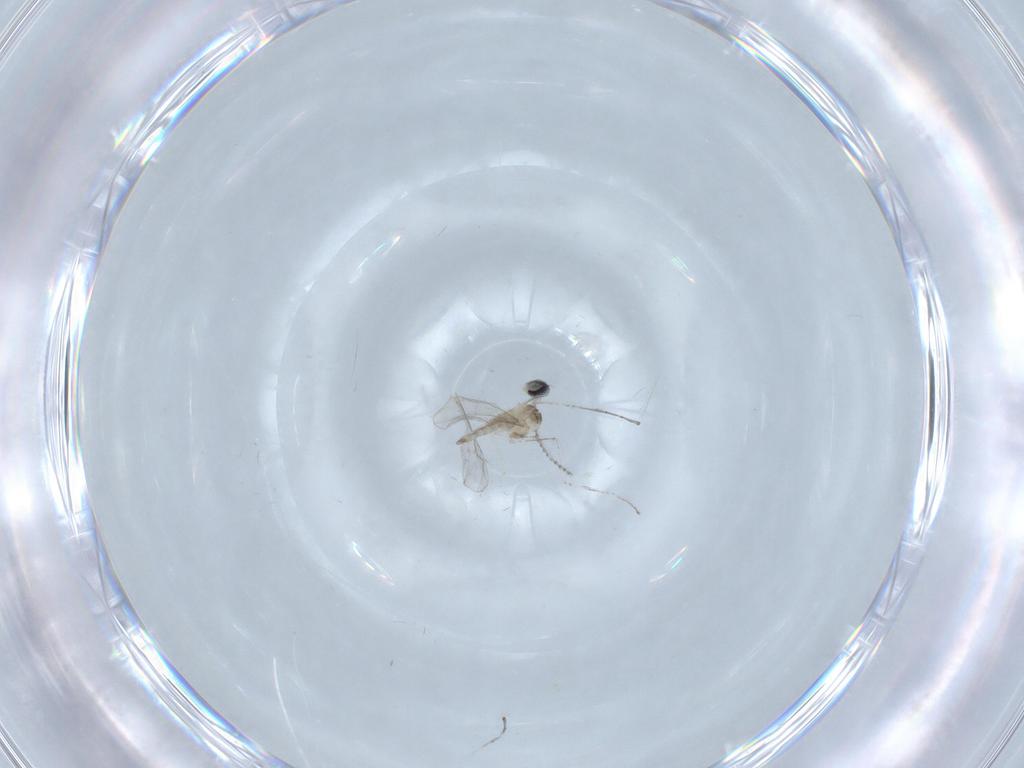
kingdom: Animalia
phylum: Arthropoda
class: Insecta
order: Diptera
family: Cecidomyiidae
